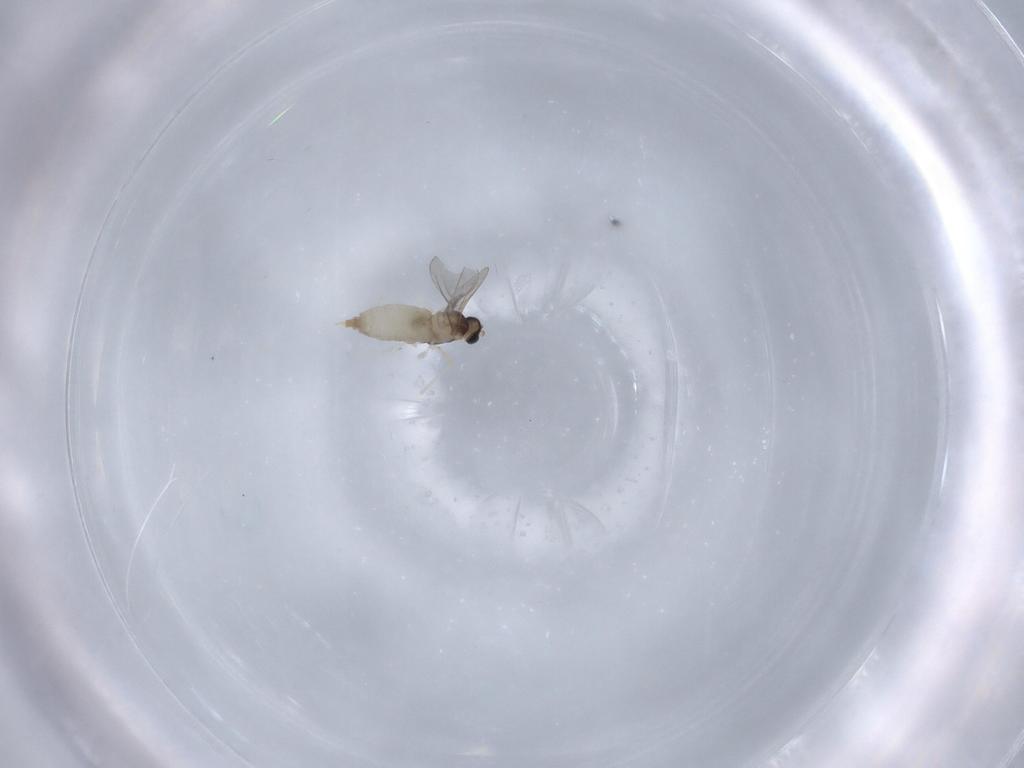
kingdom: Animalia
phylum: Arthropoda
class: Insecta
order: Diptera
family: Milichiidae
